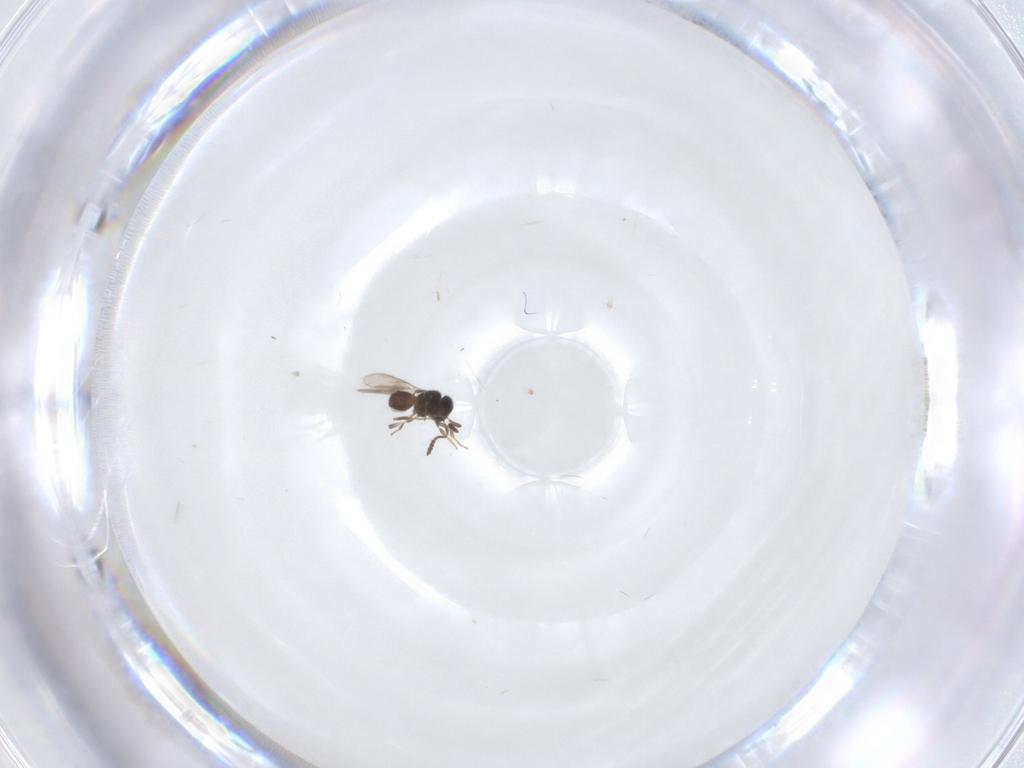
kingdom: Animalia
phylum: Arthropoda
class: Insecta
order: Hymenoptera
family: Scelionidae
